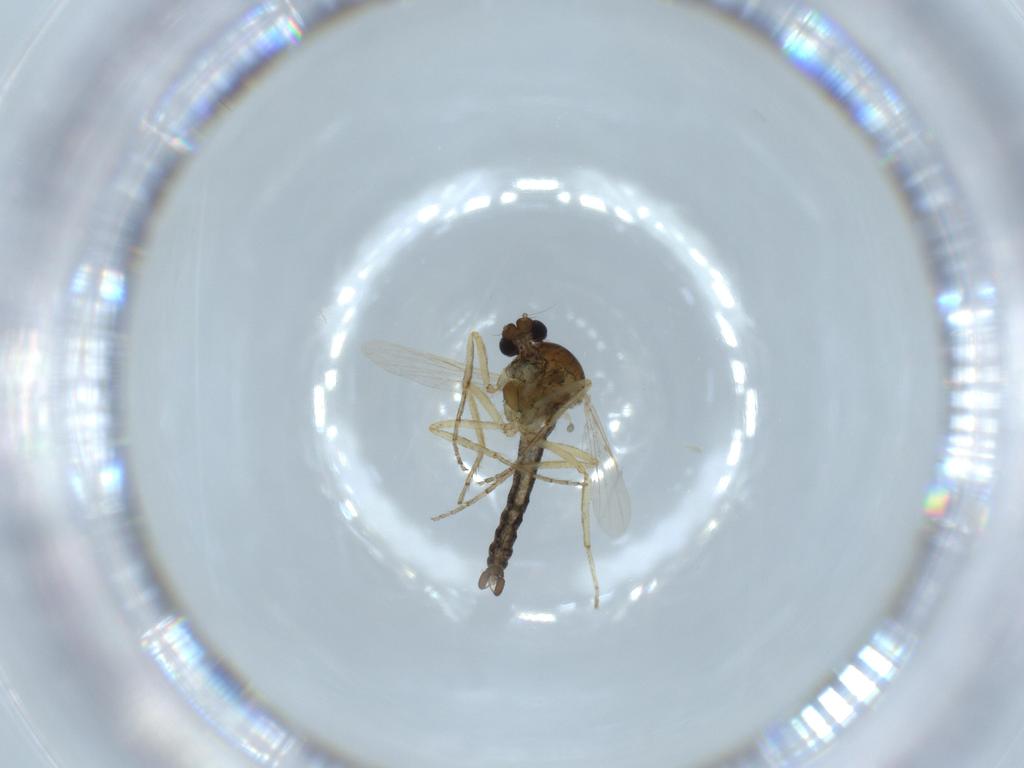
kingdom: Animalia
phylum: Arthropoda
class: Insecta
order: Diptera
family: Ceratopogonidae
